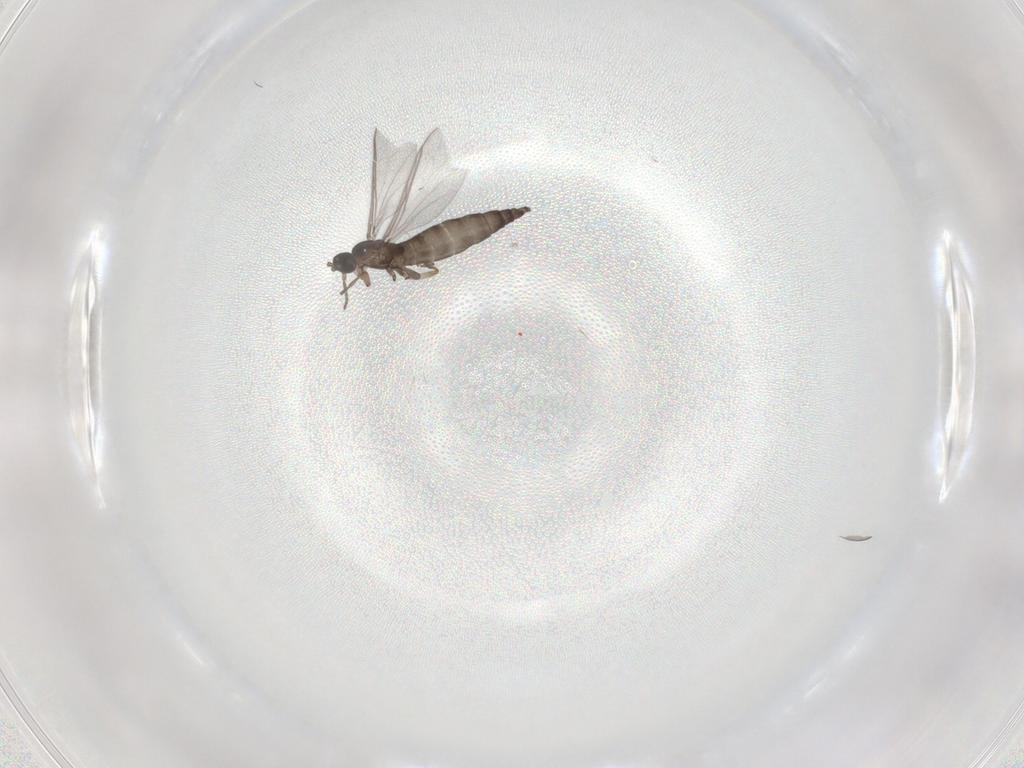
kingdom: Animalia
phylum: Arthropoda
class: Insecta
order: Diptera
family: Sciaridae
